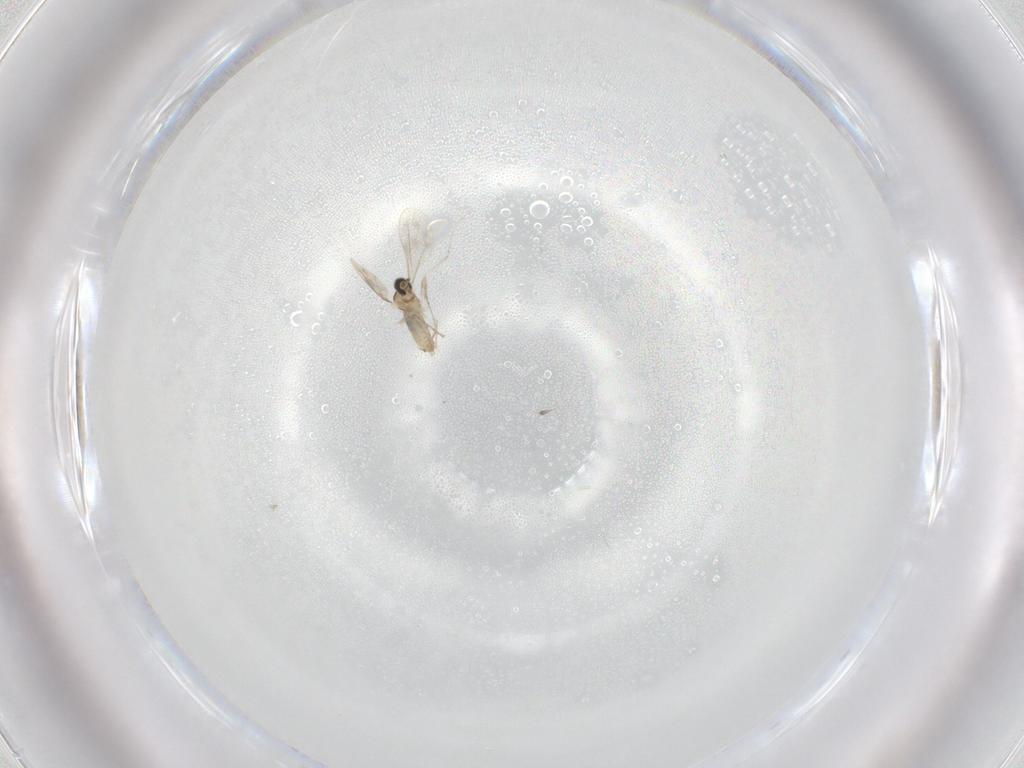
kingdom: Animalia
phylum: Arthropoda
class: Insecta
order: Diptera
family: Cecidomyiidae
